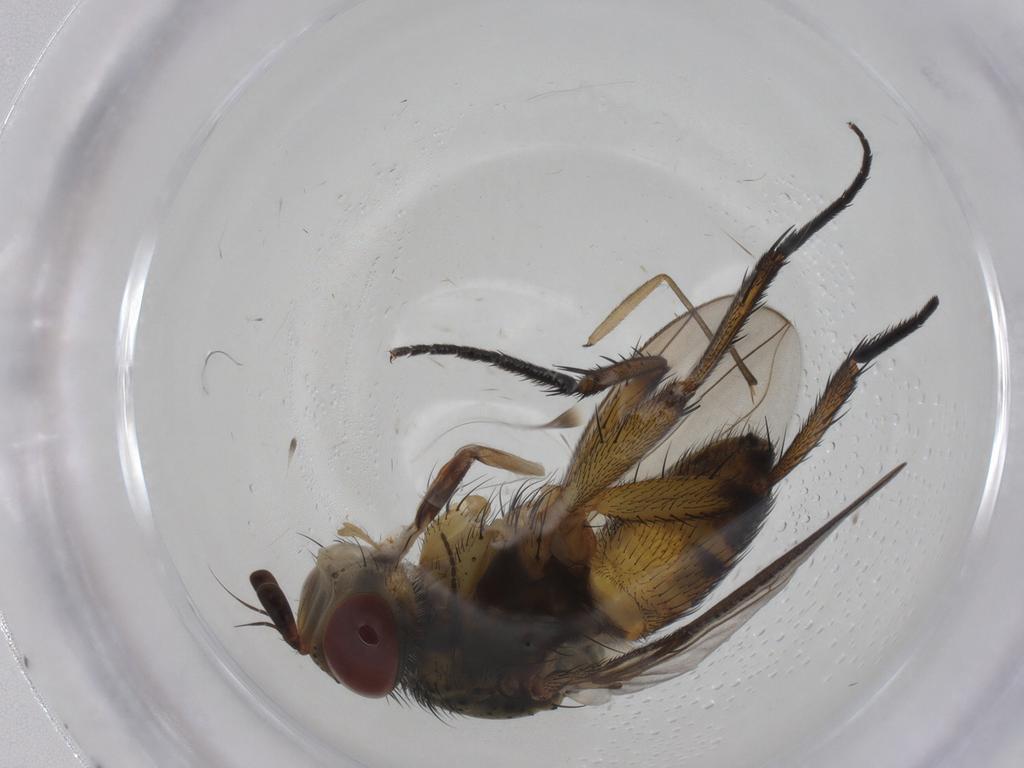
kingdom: Animalia
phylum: Arthropoda
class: Insecta
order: Diptera
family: Tachinidae
